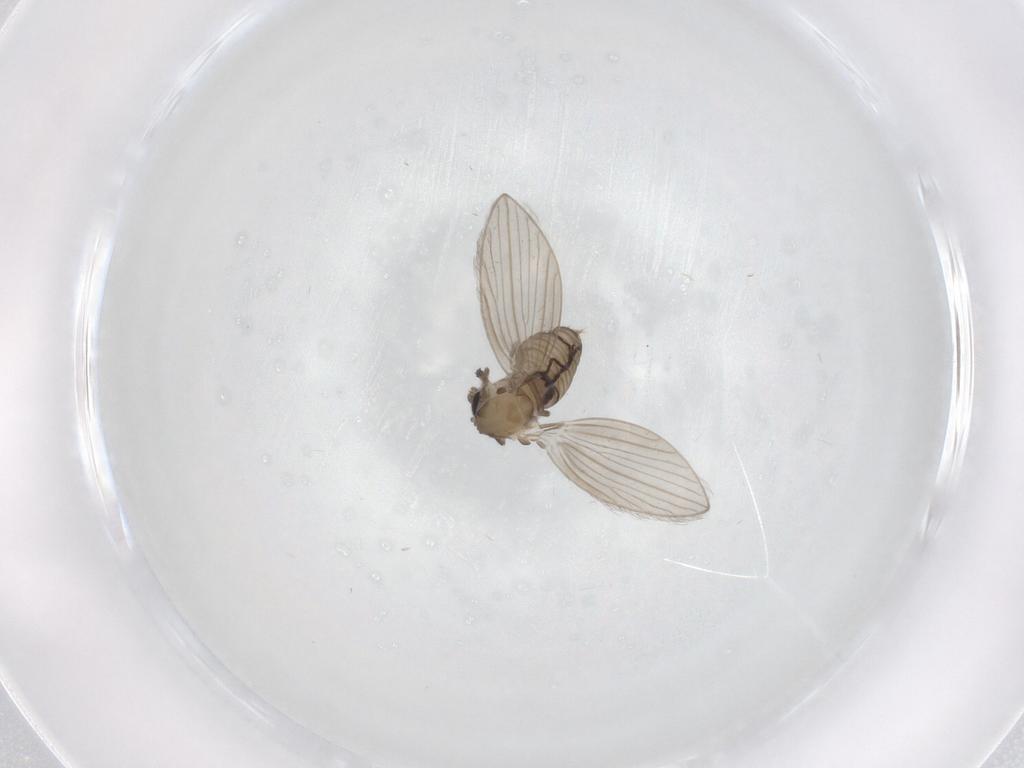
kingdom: Animalia
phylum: Arthropoda
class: Insecta
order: Diptera
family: Chironomidae
